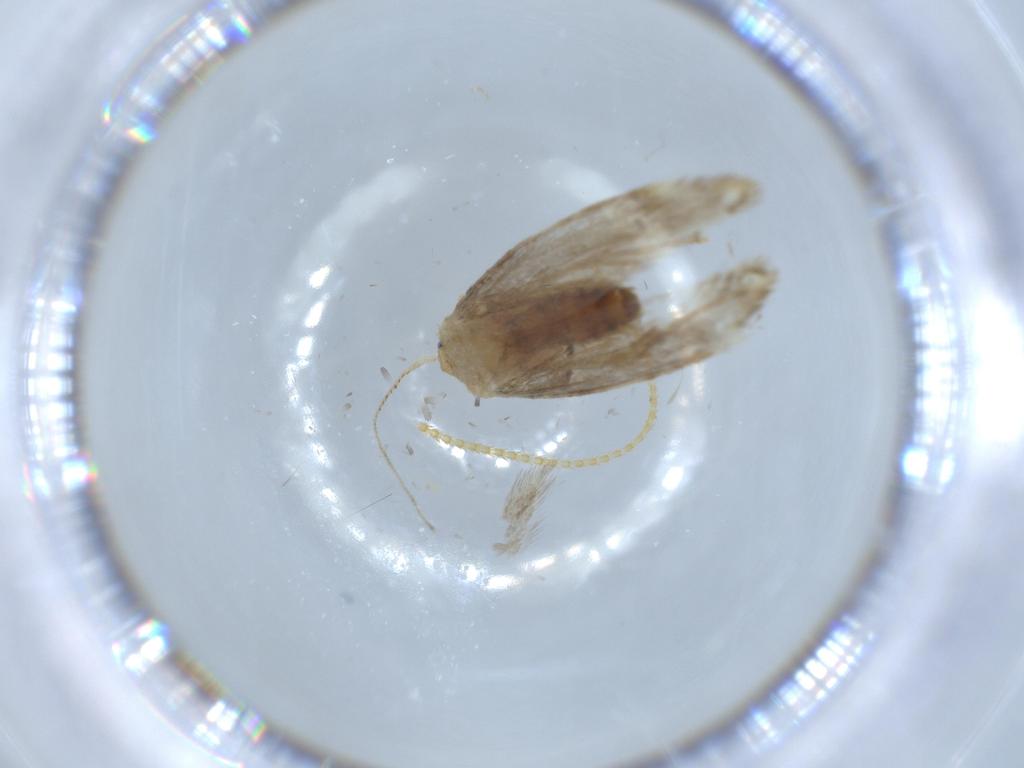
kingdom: Animalia
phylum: Arthropoda
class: Insecta
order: Lepidoptera
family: Dryadaulidae
